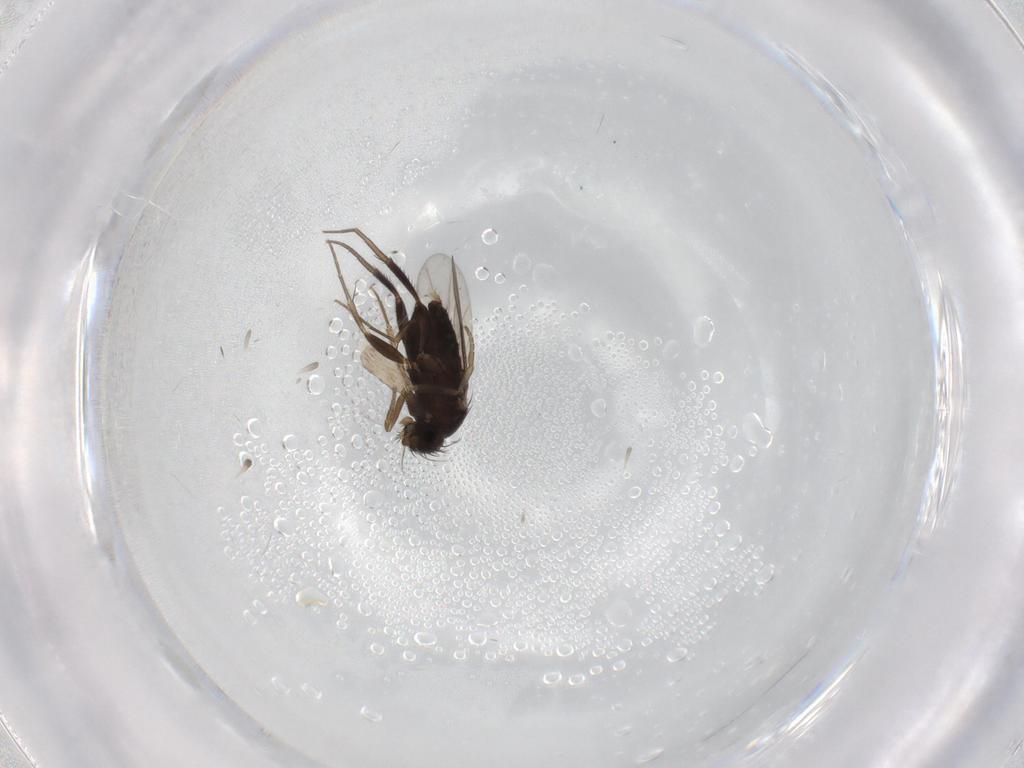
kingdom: Animalia
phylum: Arthropoda
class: Insecta
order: Diptera
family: Phoridae
